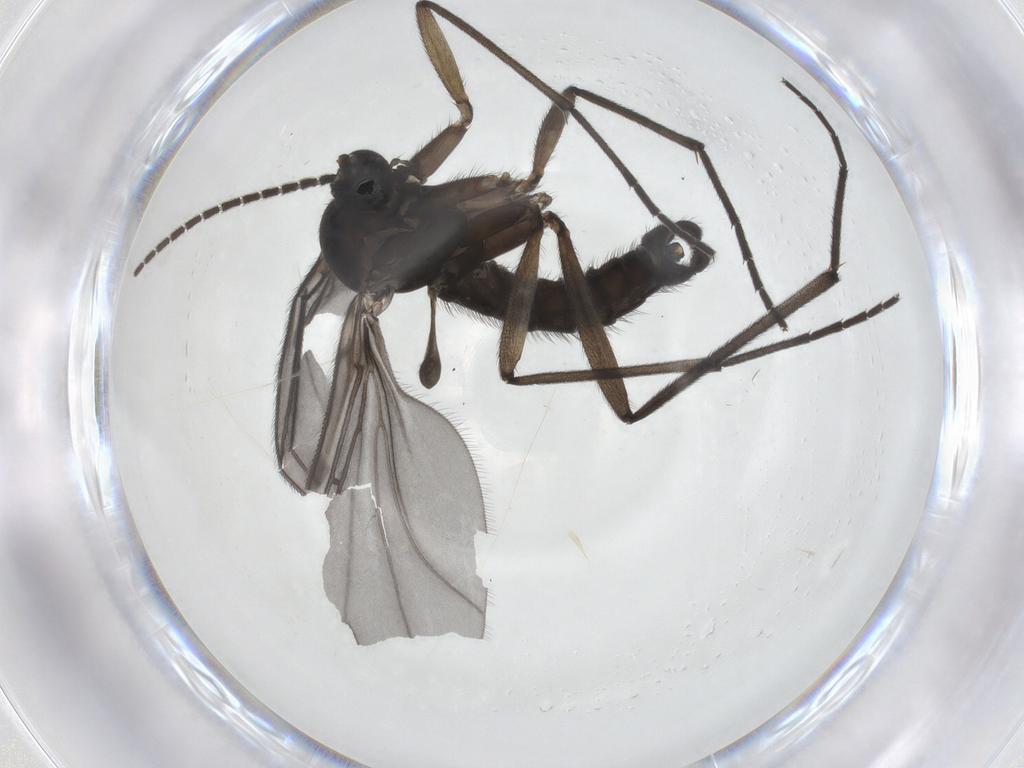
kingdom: Animalia
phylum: Arthropoda
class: Insecta
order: Diptera
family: Sciaridae
